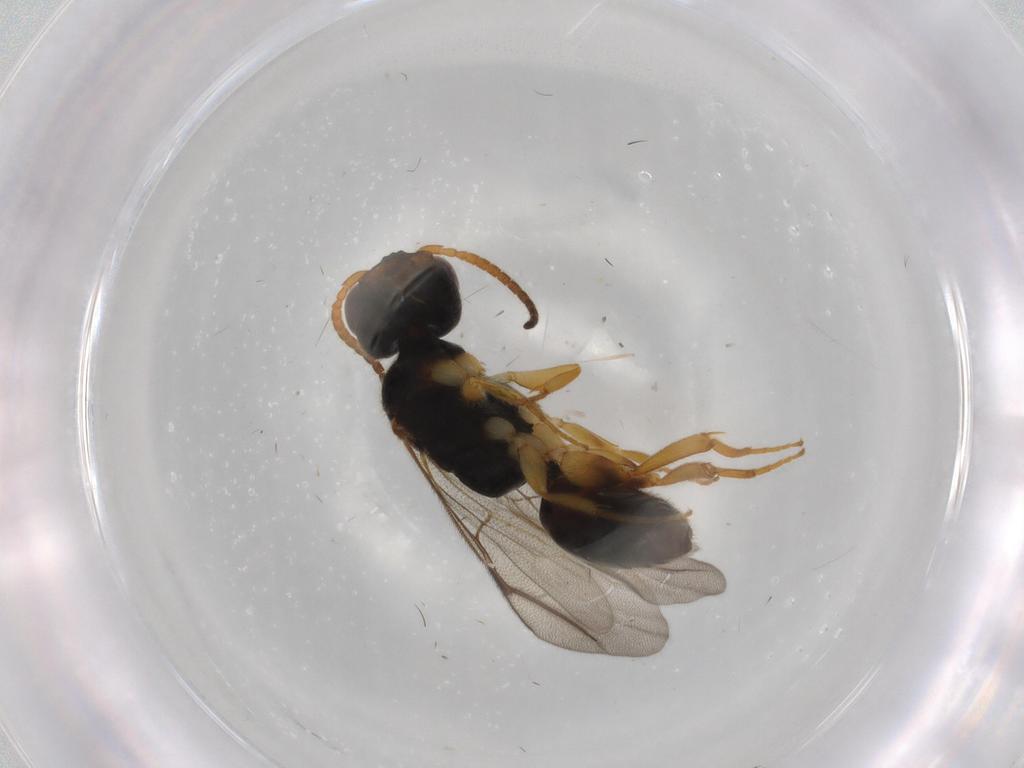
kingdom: Animalia
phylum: Arthropoda
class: Insecta
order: Hymenoptera
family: Bethylidae
